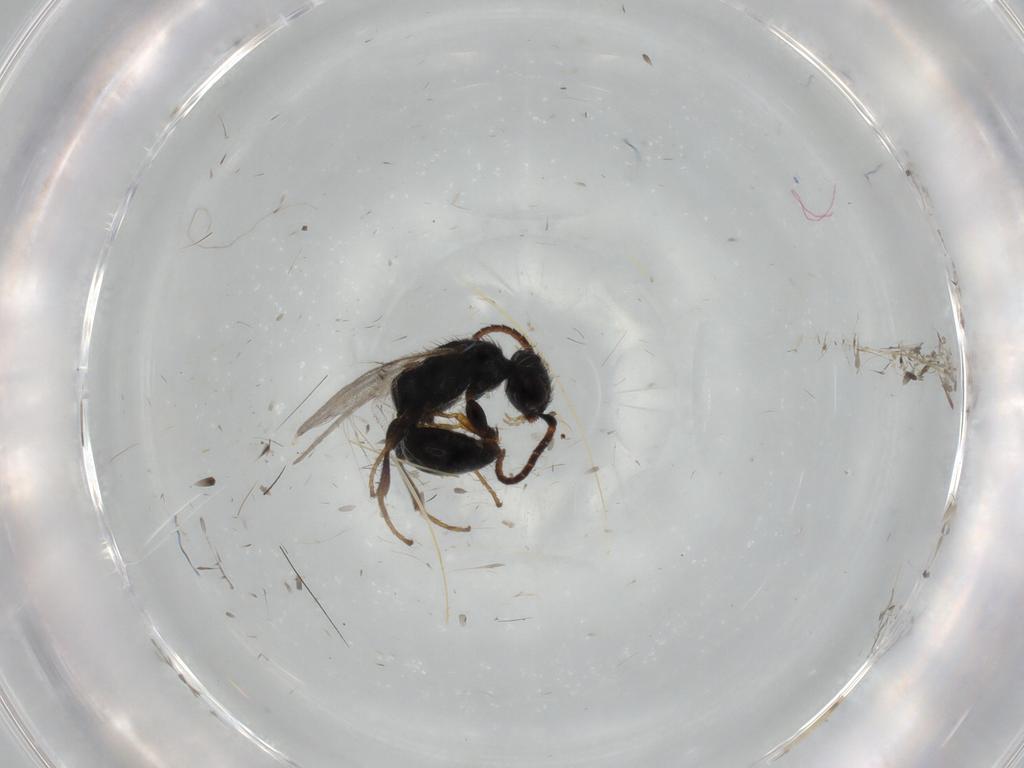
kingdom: Animalia
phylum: Arthropoda
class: Insecta
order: Hymenoptera
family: Bethylidae
